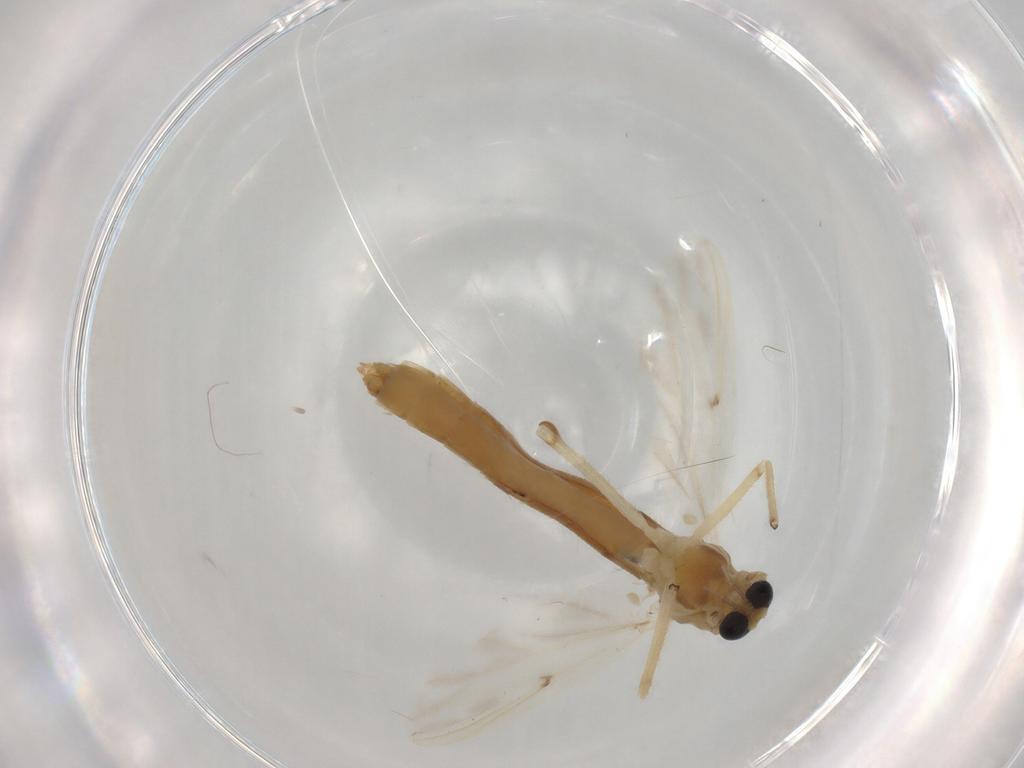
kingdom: Animalia
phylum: Arthropoda
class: Insecta
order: Diptera
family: Chironomidae
